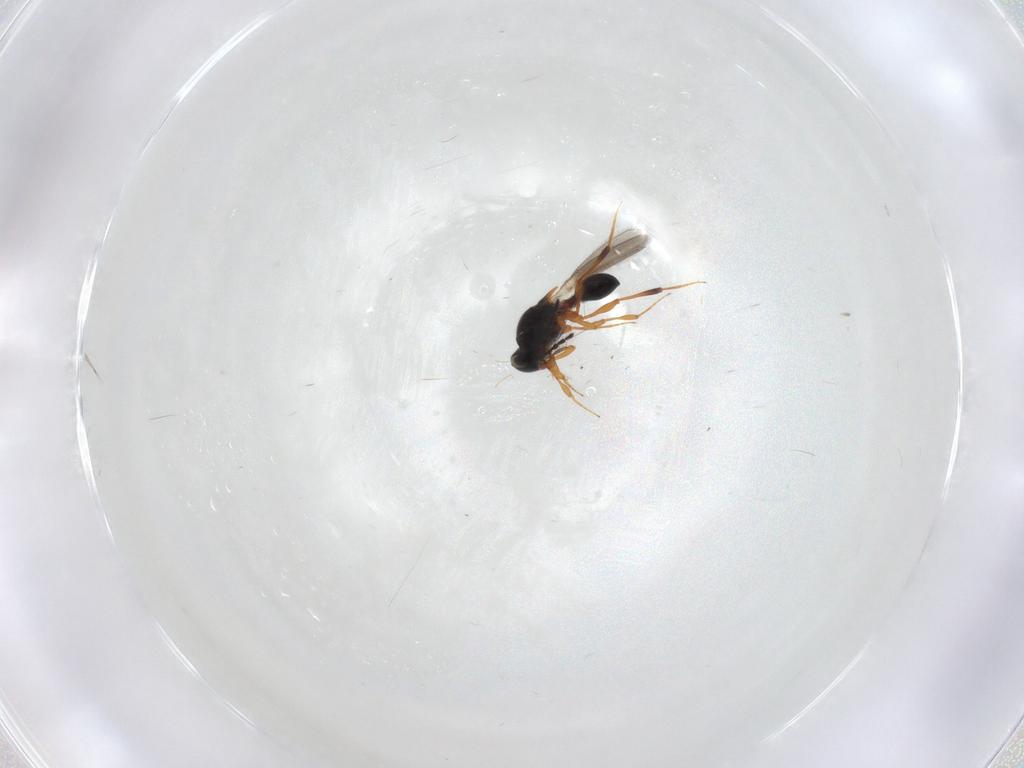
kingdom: Animalia
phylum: Arthropoda
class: Insecta
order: Hymenoptera
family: Platygastridae
